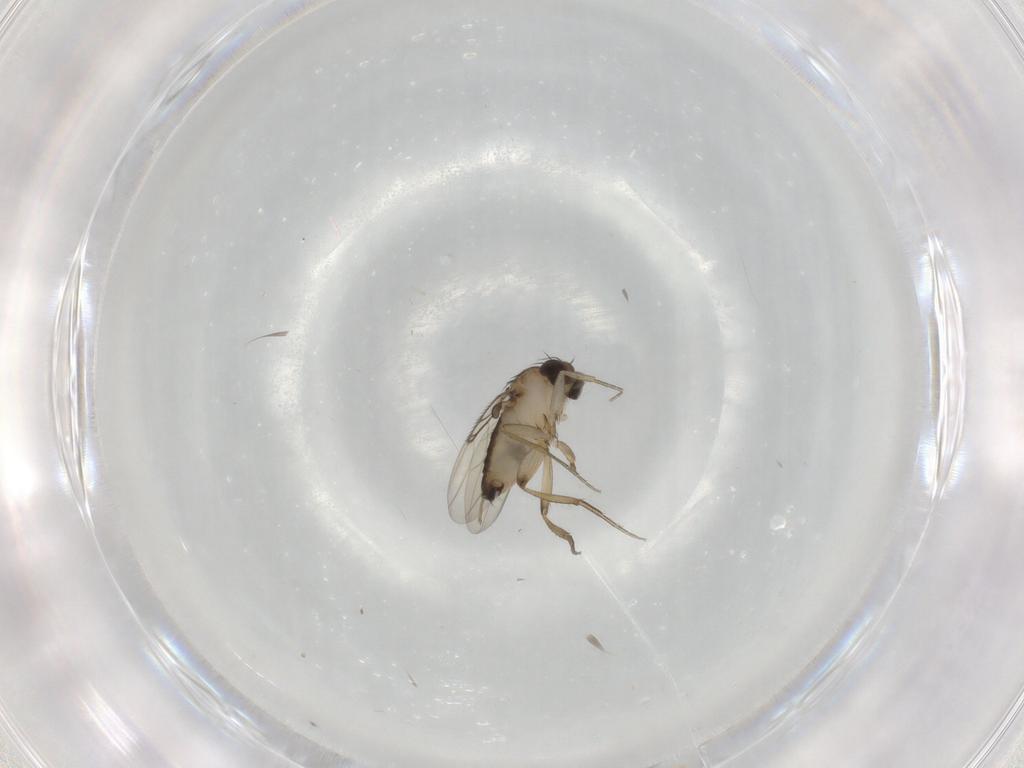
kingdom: Animalia
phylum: Arthropoda
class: Insecta
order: Diptera
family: Phoridae
